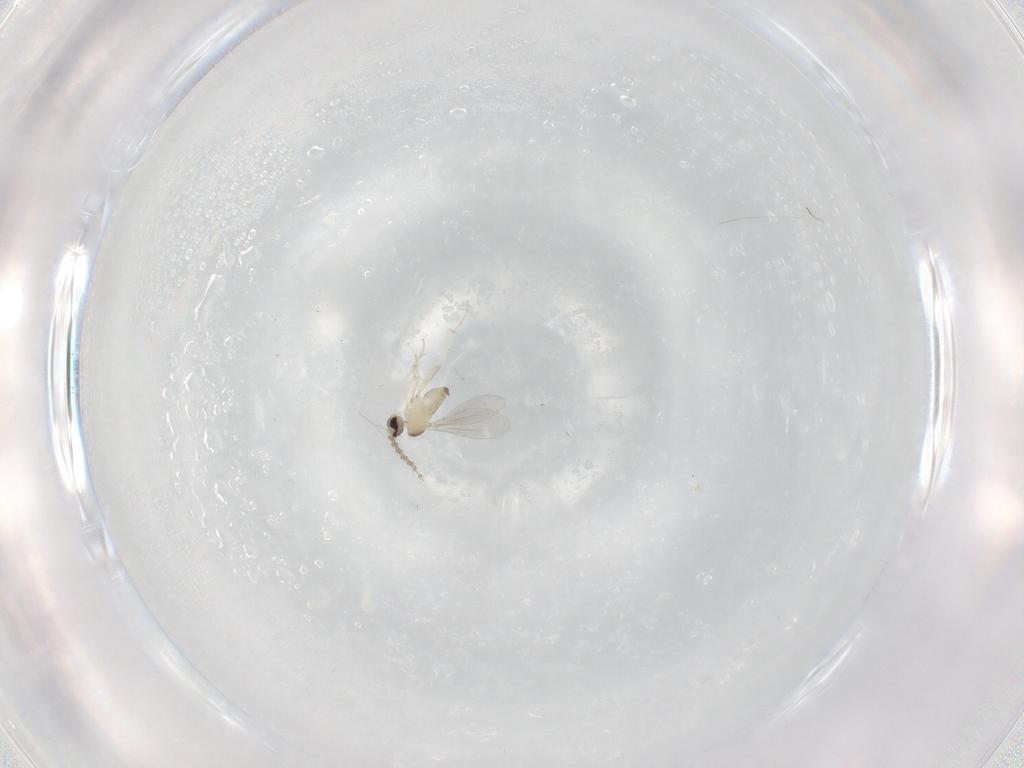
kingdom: Animalia
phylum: Arthropoda
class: Insecta
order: Diptera
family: Sciaridae
